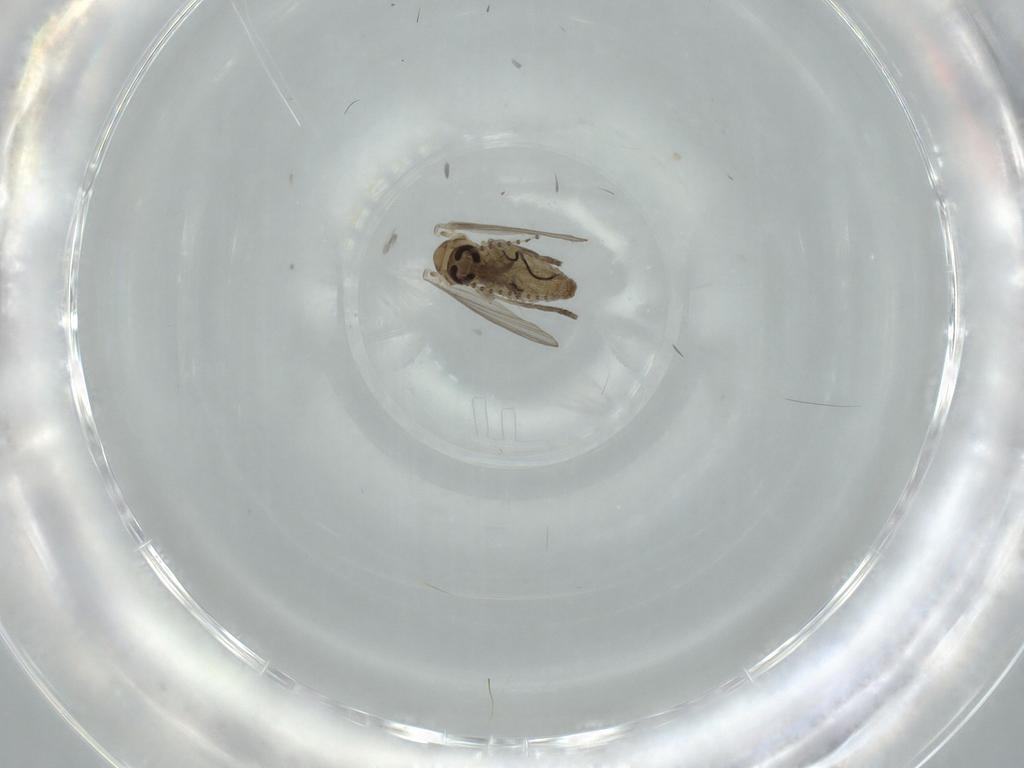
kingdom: Animalia
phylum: Arthropoda
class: Insecta
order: Diptera
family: Psychodidae
